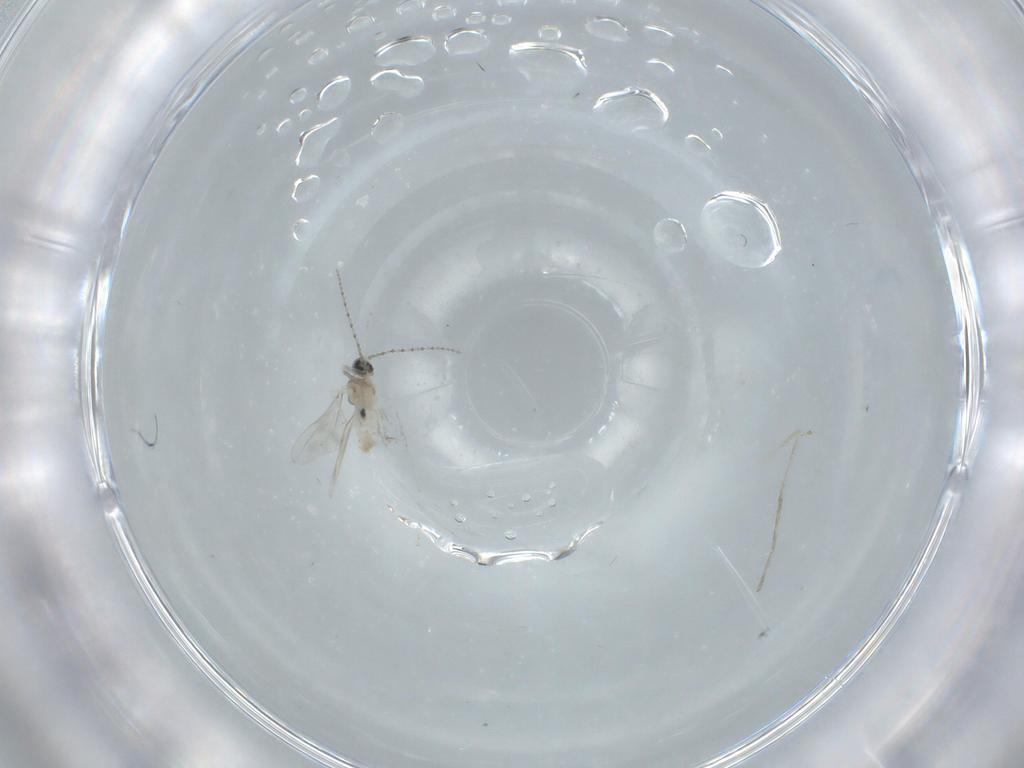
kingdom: Animalia
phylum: Arthropoda
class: Insecta
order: Diptera
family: Cecidomyiidae
